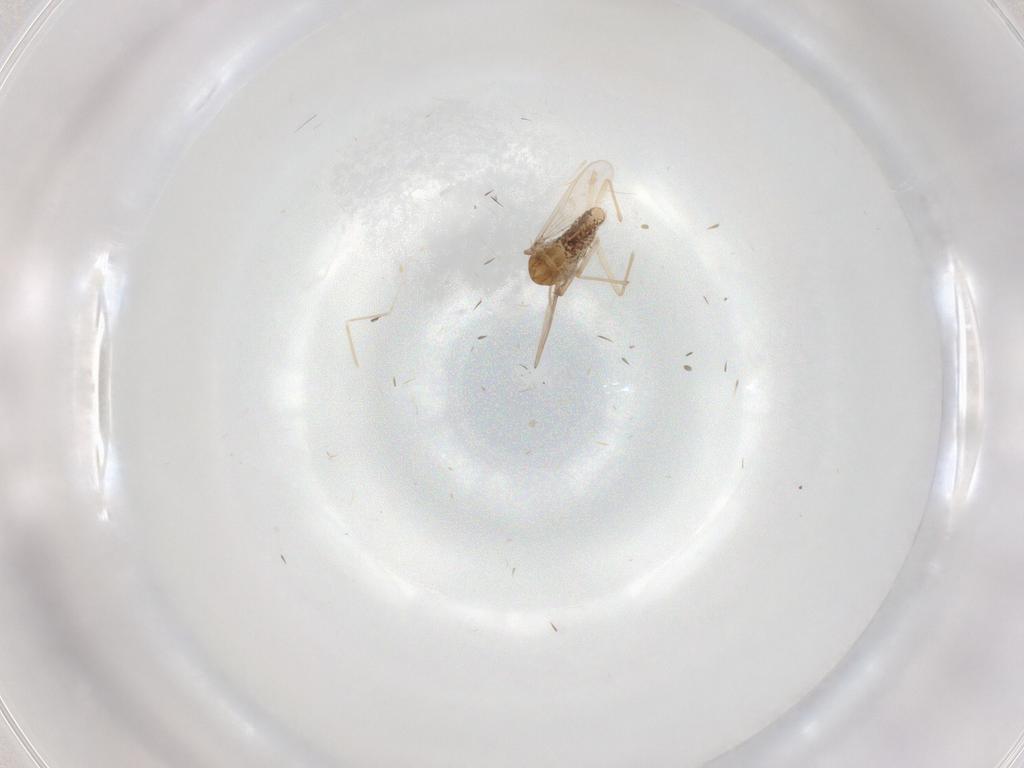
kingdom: Animalia
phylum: Arthropoda
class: Insecta
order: Diptera
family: Chironomidae
